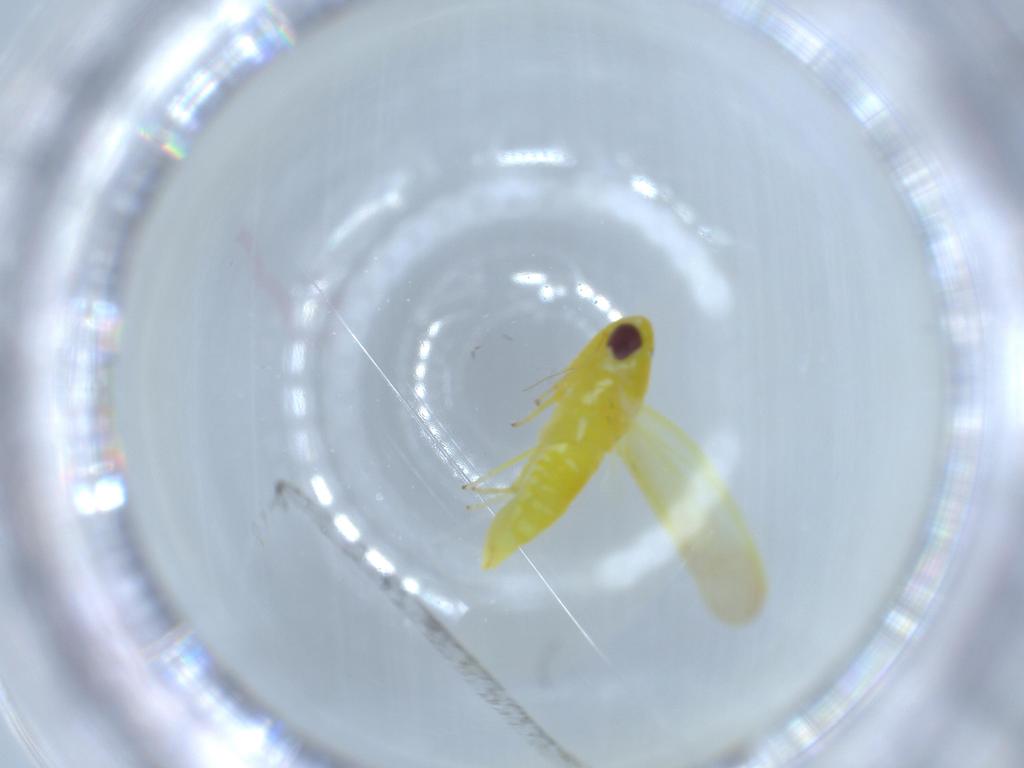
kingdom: Animalia
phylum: Arthropoda
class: Insecta
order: Hemiptera
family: Cicadellidae
